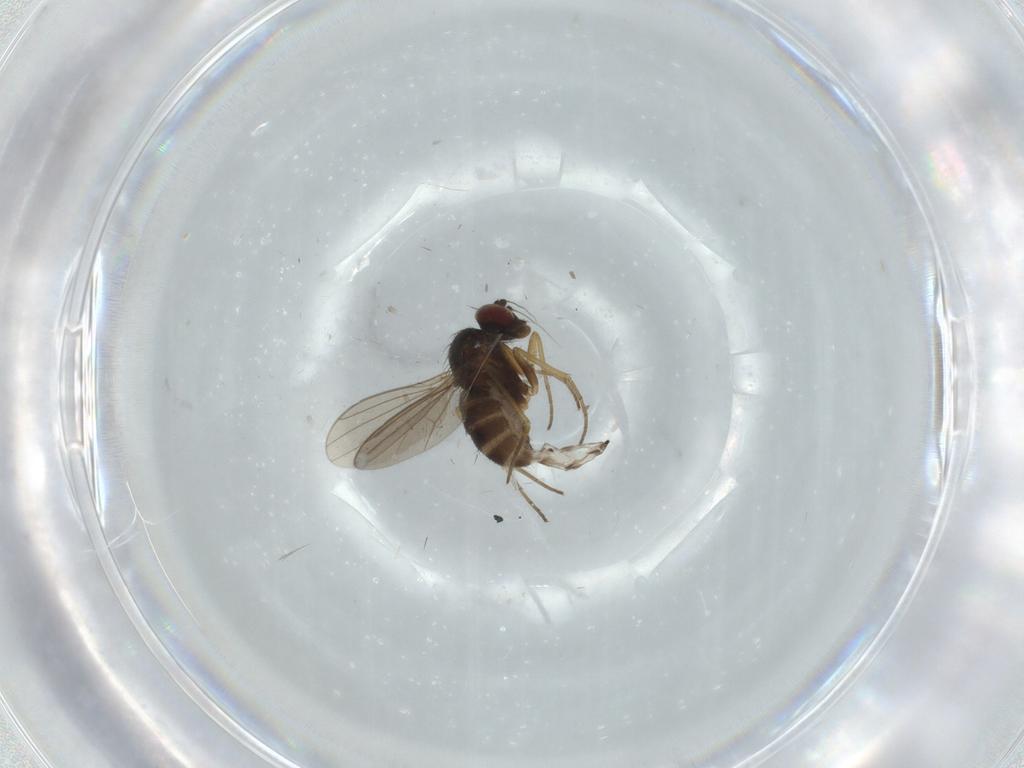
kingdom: Animalia
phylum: Arthropoda
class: Insecta
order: Diptera
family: Dolichopodidae
